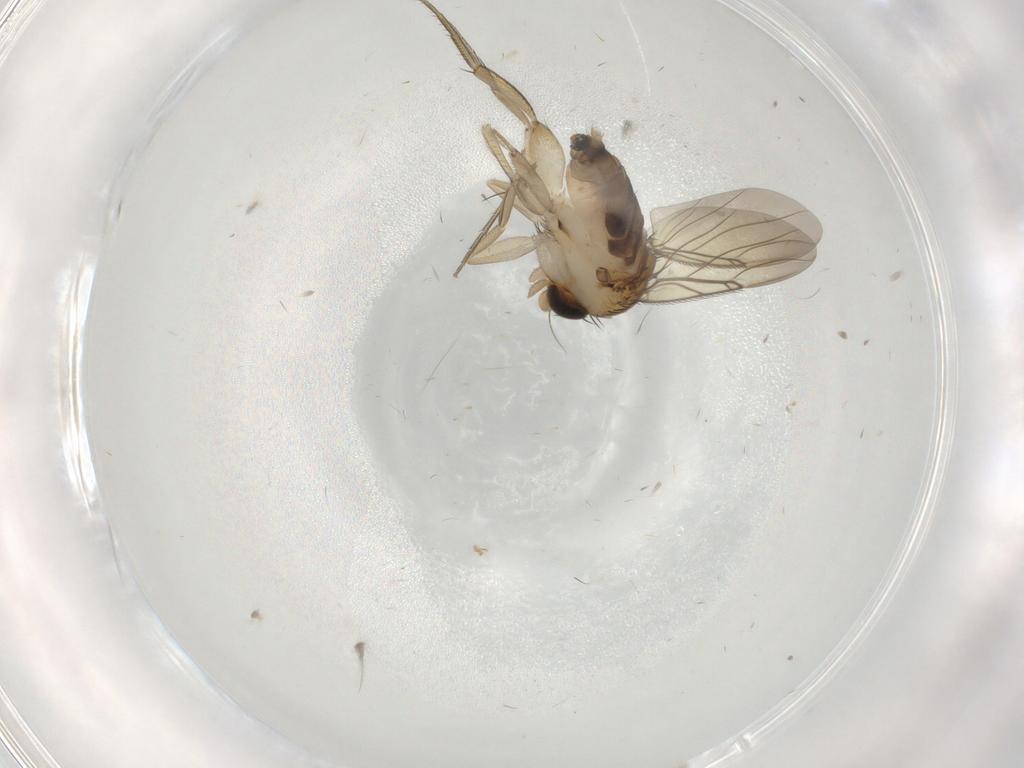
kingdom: Animalia
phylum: Arthropoda
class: Insecta
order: Diptera
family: Phoridae
